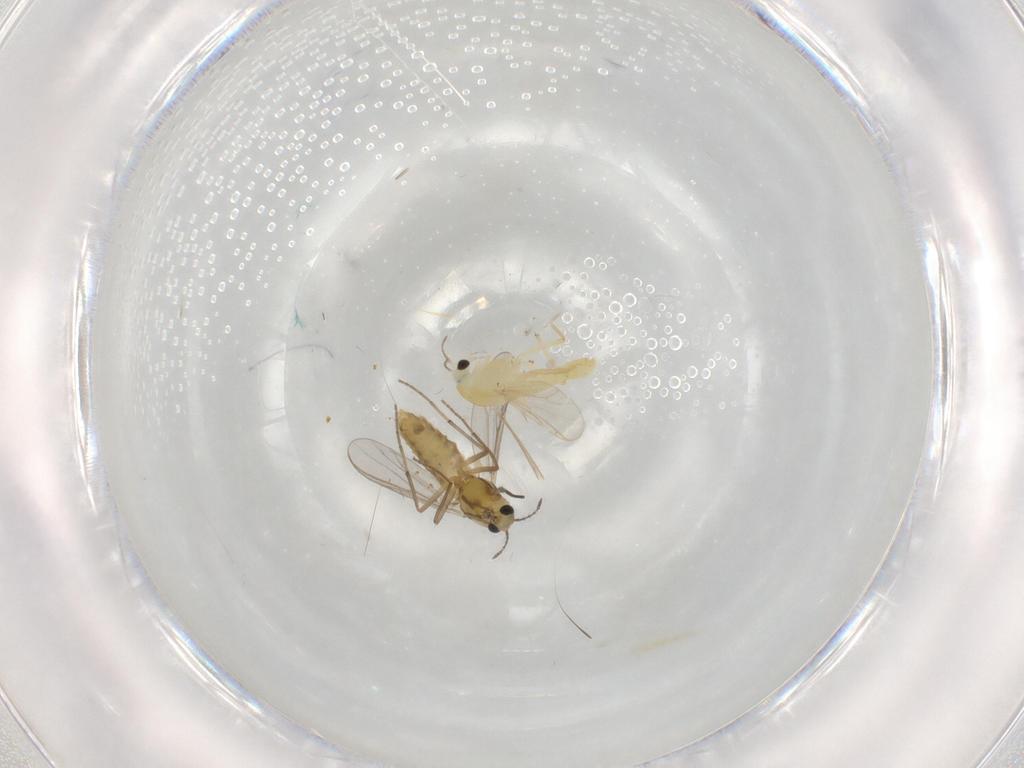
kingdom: Animalia
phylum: Arthropoda
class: Insecta
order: Diptera
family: Chironomidae
